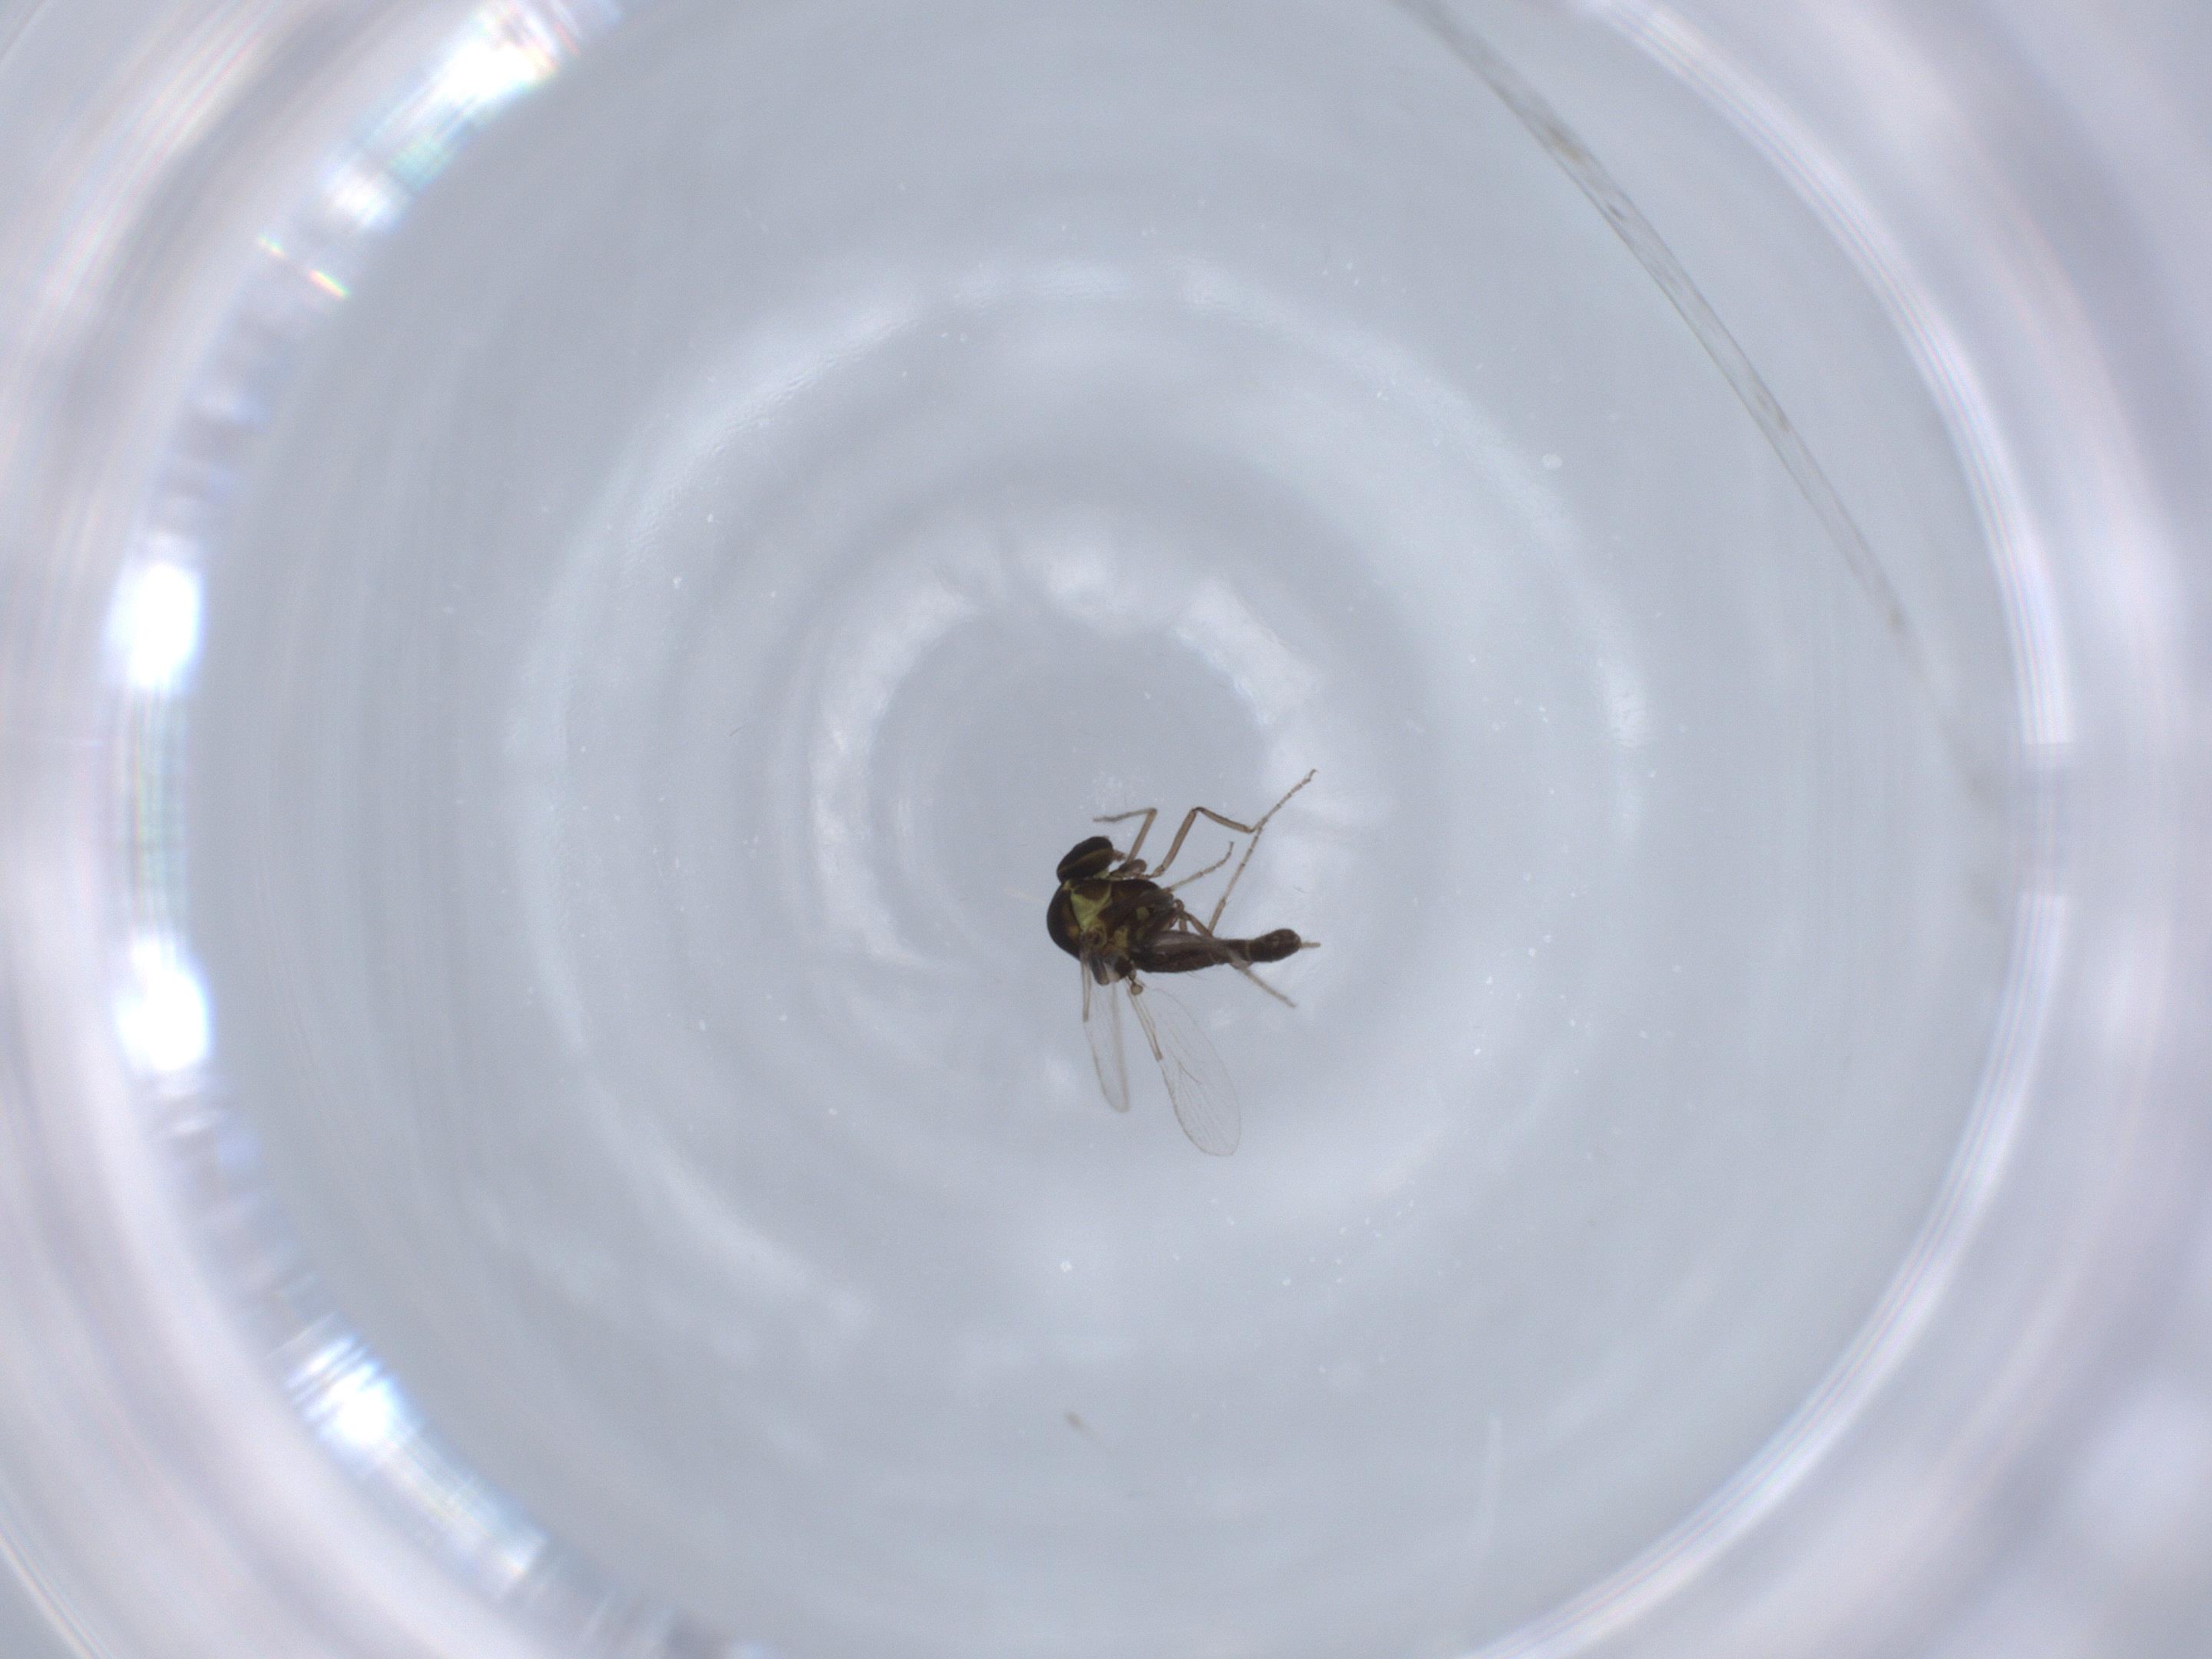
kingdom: Animalia
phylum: Arthropoda
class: Insecta
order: Diptera
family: Ceratopogonidae
